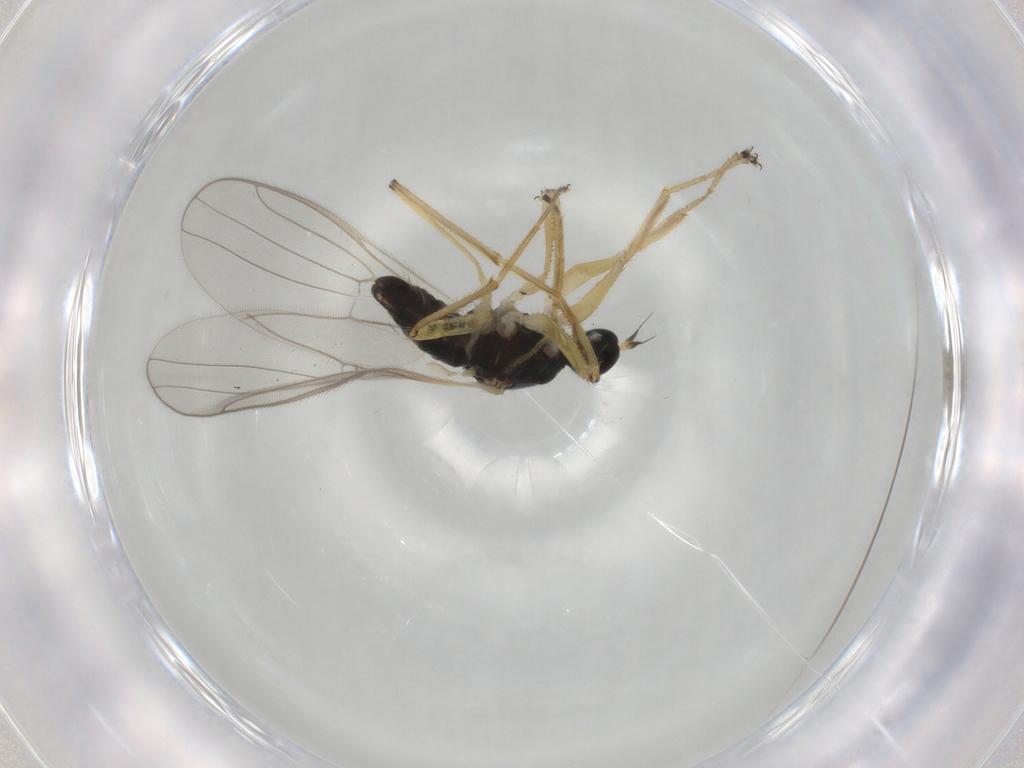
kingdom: Animalia
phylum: Arthropoda
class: Insecta
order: Diptera
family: Hybotidae
